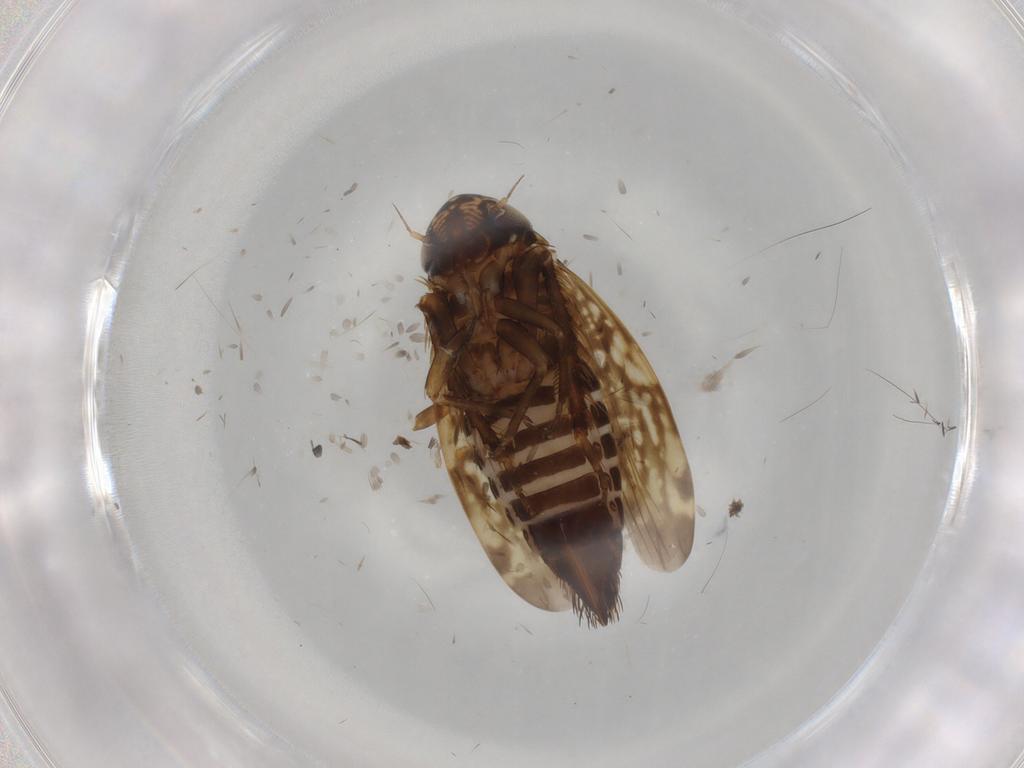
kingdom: Animalia
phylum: Arthropoda
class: Insecta
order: Hemiptera
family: Cicadellidae
